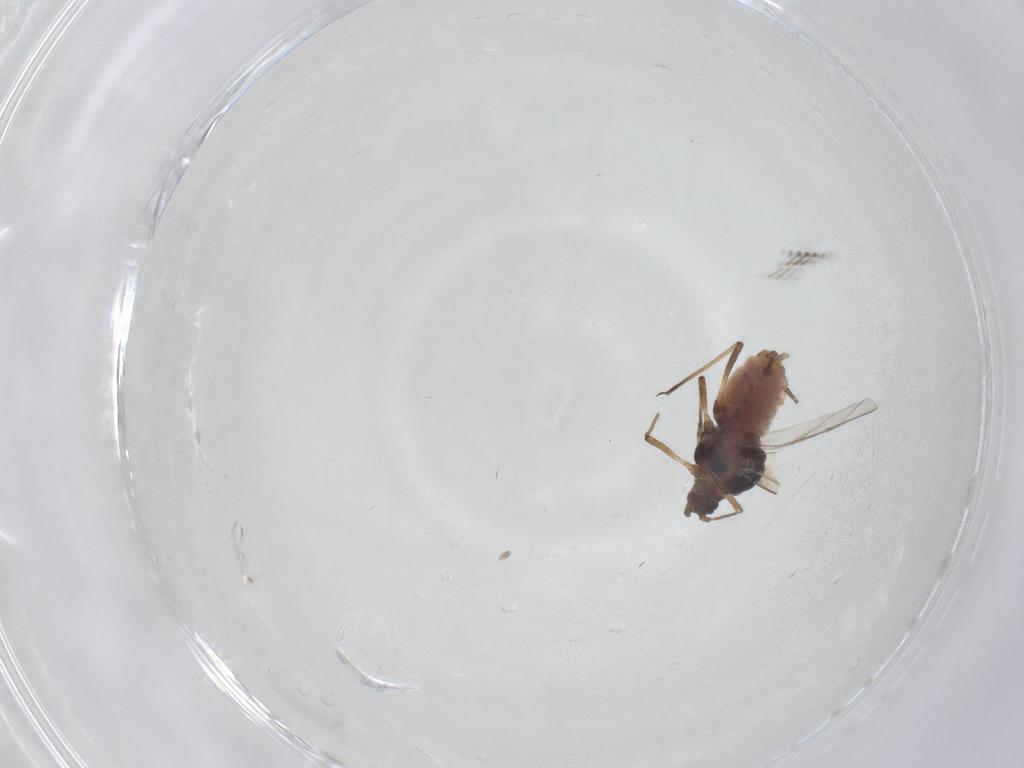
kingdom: Animalia
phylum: Arthropoda
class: Insecta
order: Hemiptera
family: Aphididae
